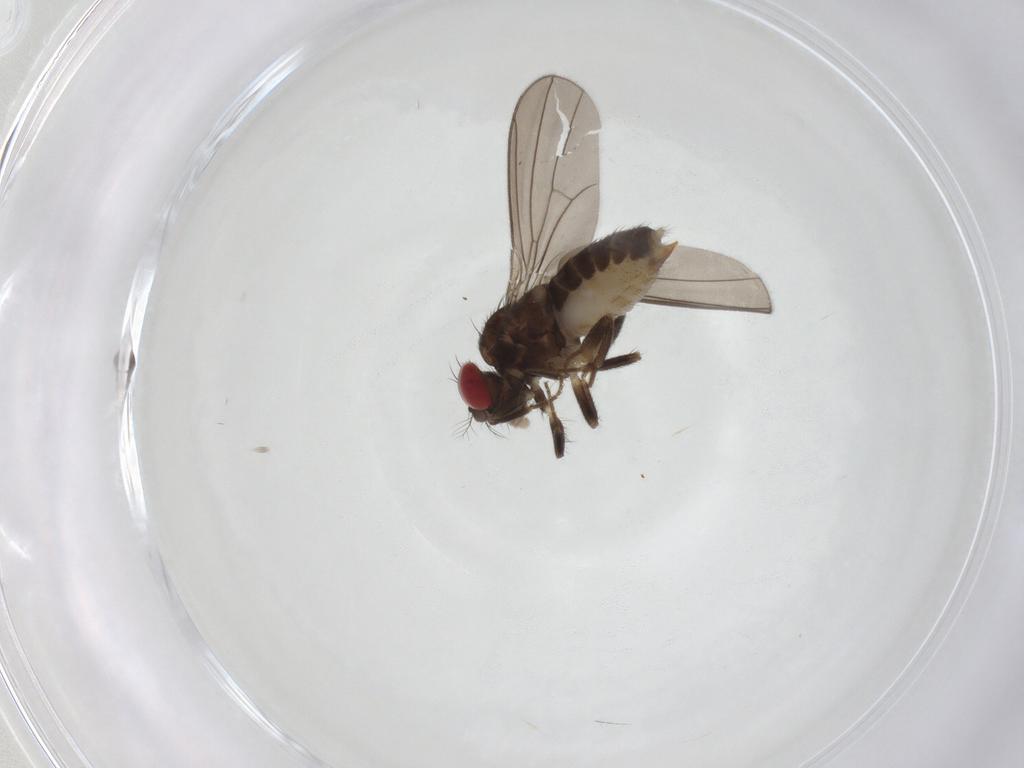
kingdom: Animalia
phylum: Arthropoda
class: Insecta
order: Diptera
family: Drosophilidae
